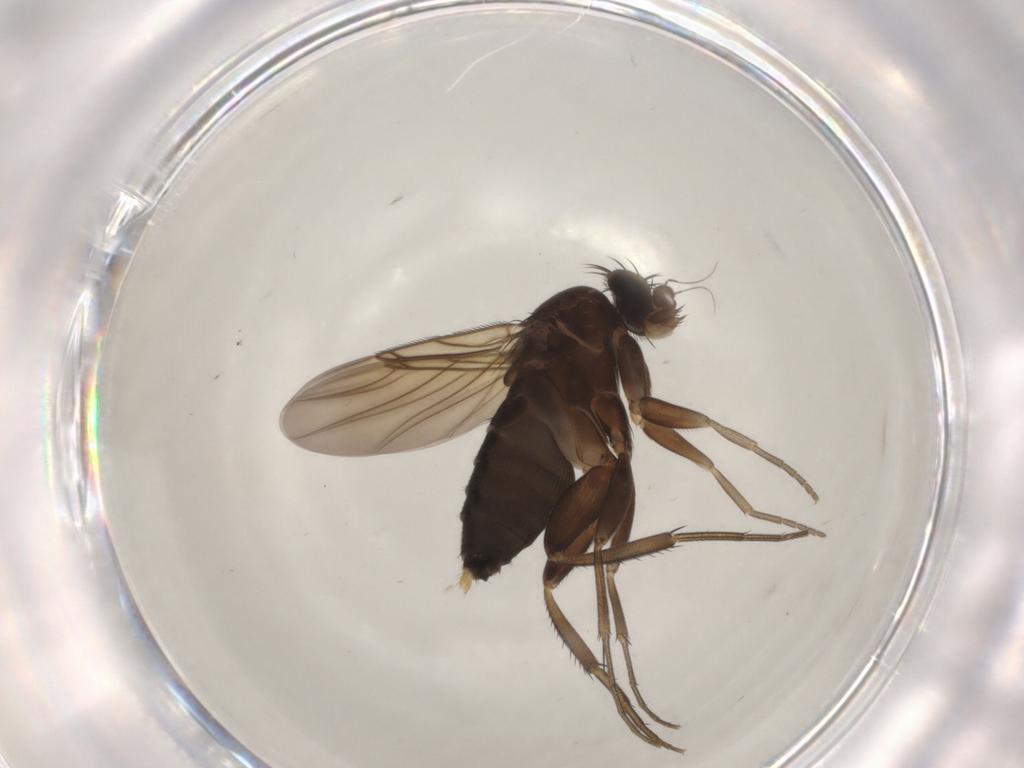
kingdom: Animalia
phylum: Arthropoda
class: Insecta
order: Diptera
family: Phoridae
